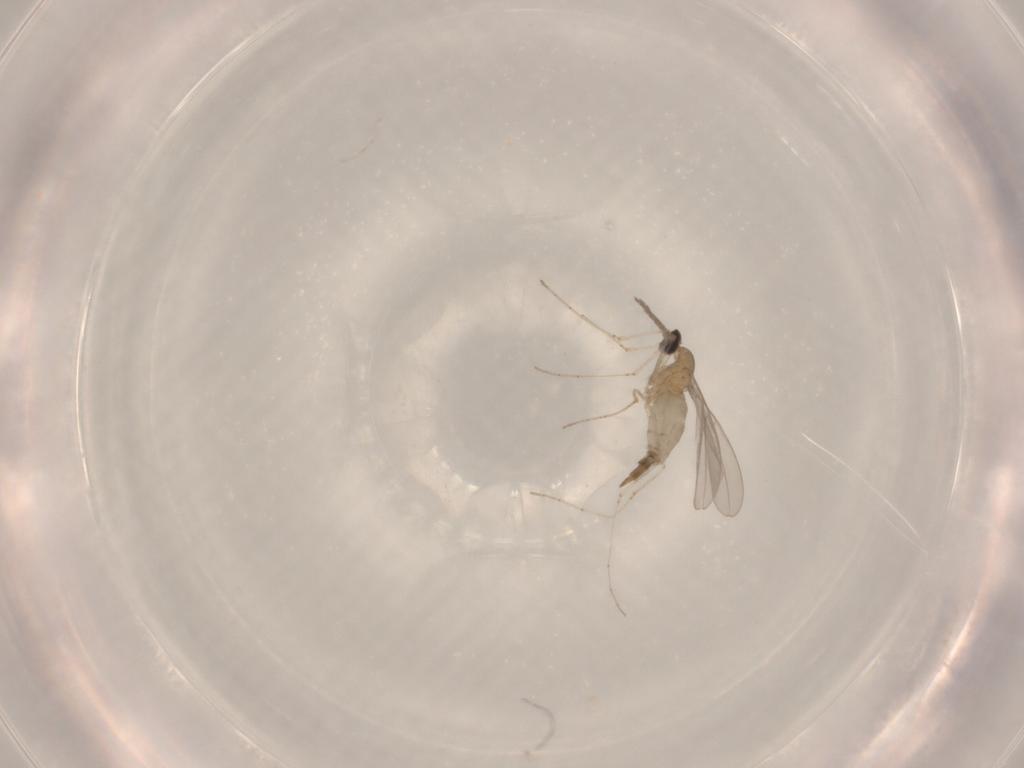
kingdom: Animalia
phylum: Arthropoda
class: Insecta
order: Diptera
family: Cecidomyiidae
